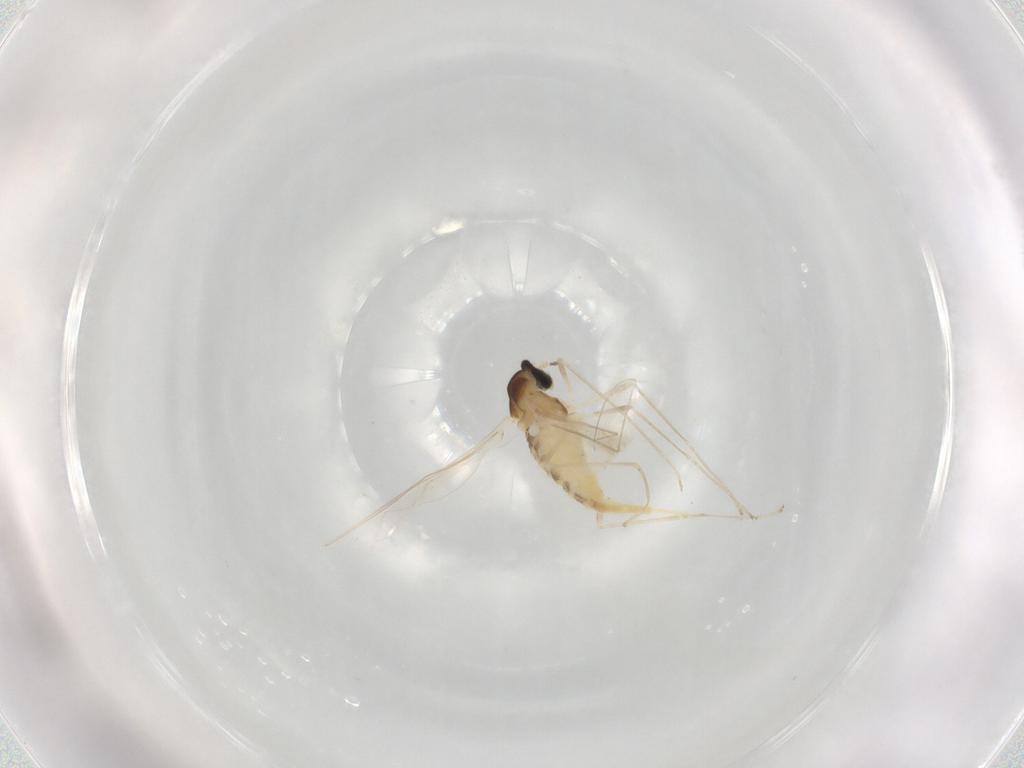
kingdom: Animalia
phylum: Arthropoda
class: Insecta
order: Diptera
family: Cecidomyiidae
